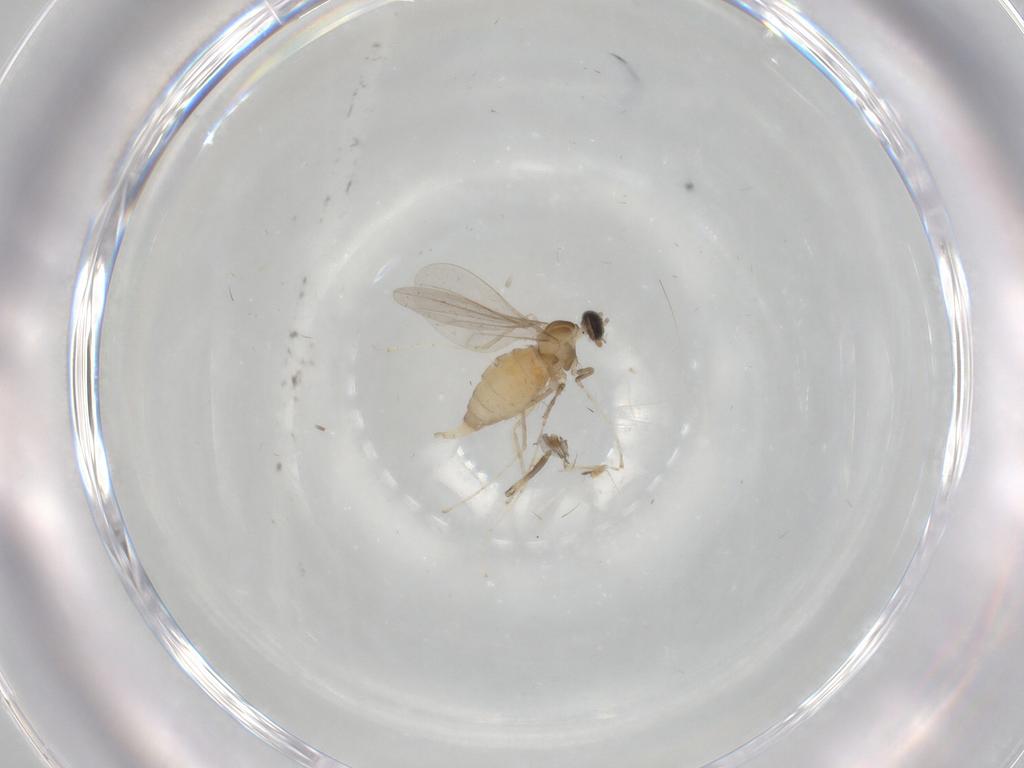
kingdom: Animalia
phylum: Arthropoda
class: Insecta
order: Diptera
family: Cecidomyiidae
